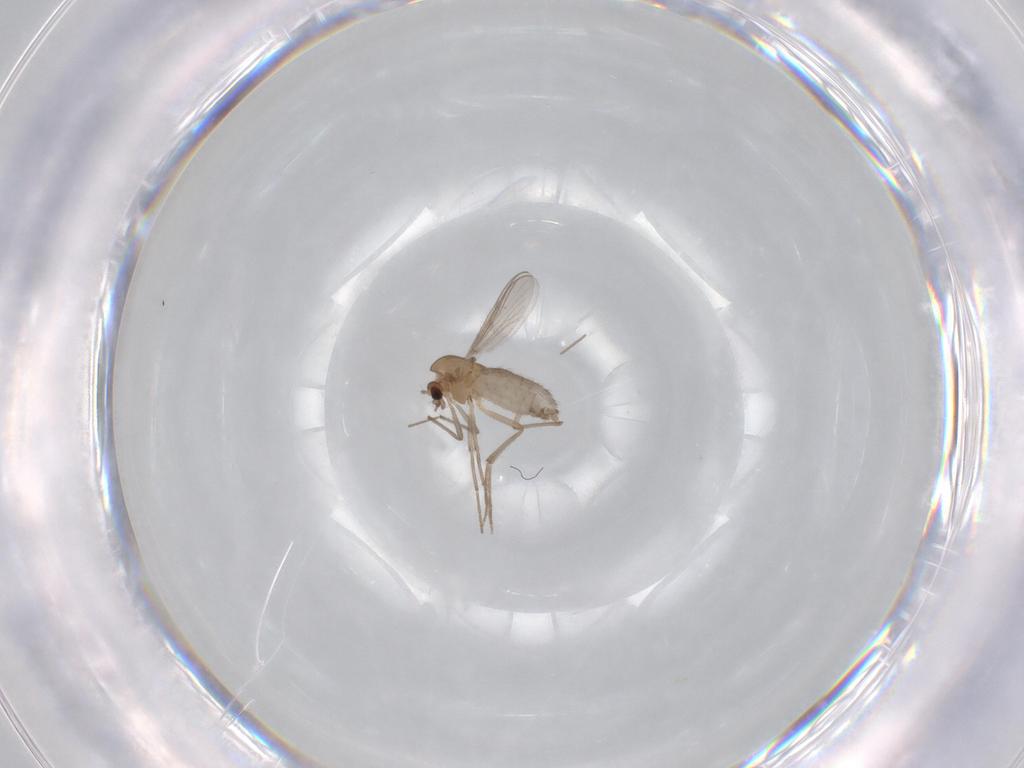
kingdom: Animalia
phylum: Arthropoda
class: Insecta
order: Diptera
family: Chironomidae
